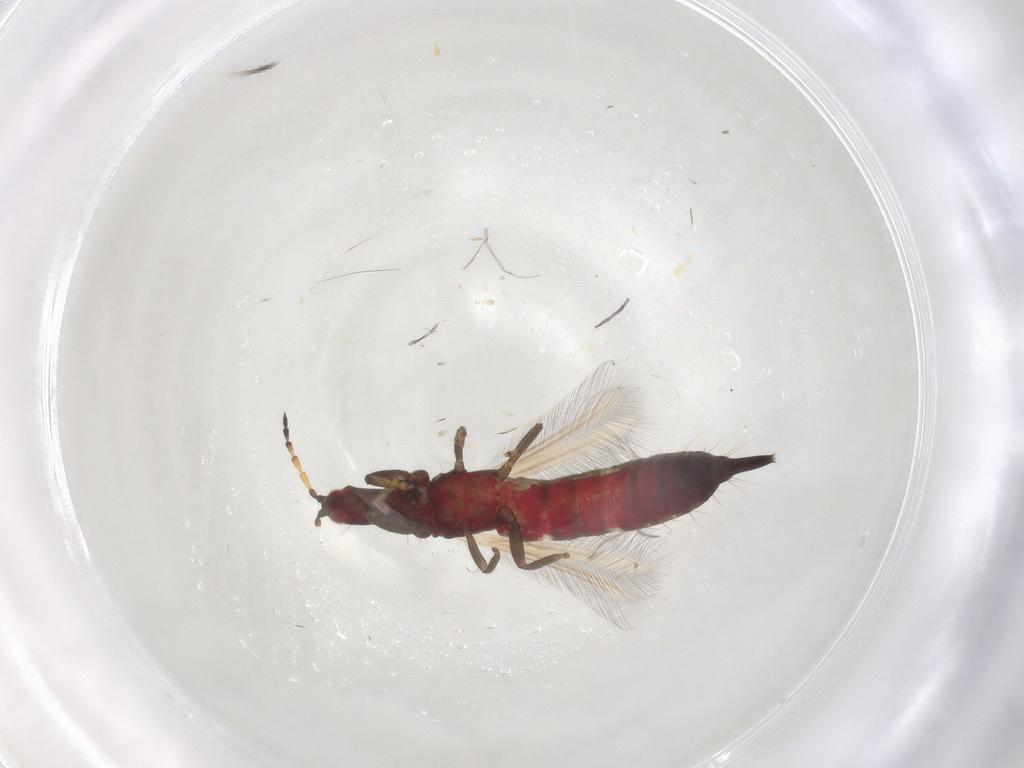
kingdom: Animalia
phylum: Arthropoda
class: Insecta
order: Thysanoptera
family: Phlaeothripidae
